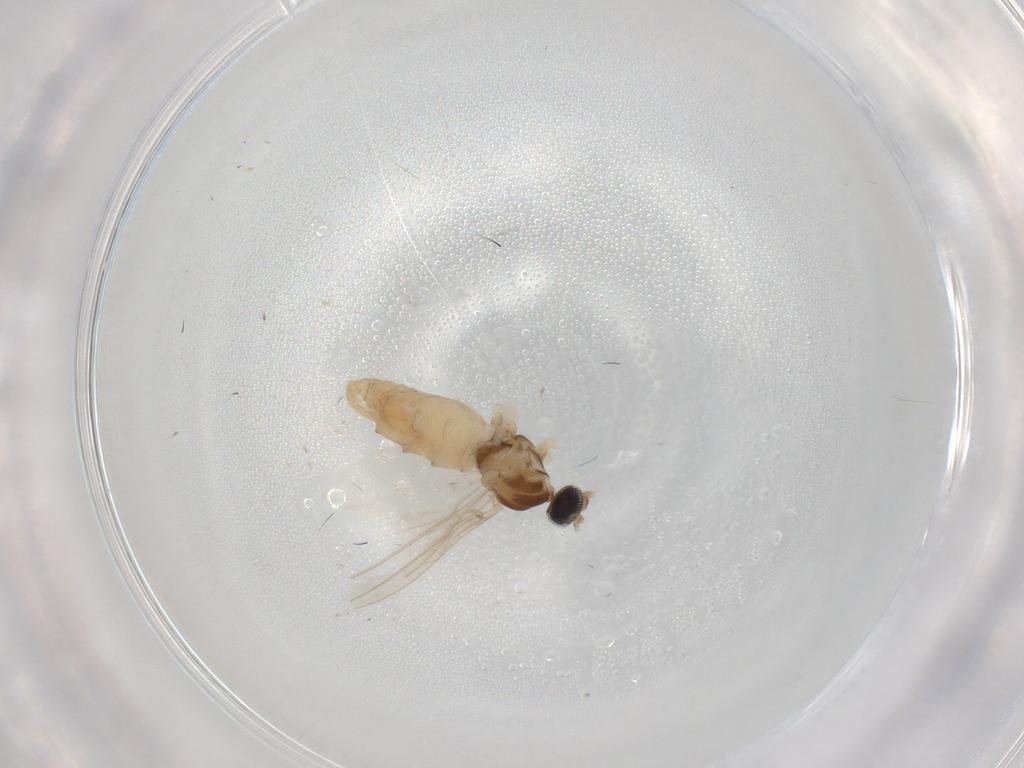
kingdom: Animalia
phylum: Arthropoda
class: Insecta
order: Diptera
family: Cecidomyiidae
